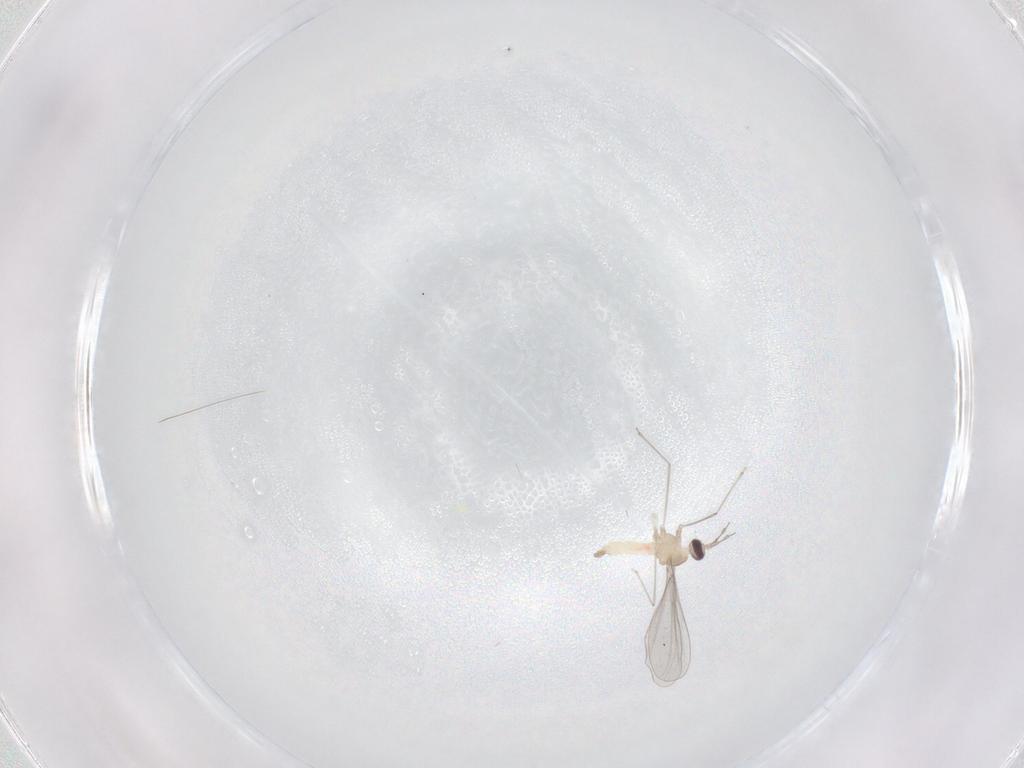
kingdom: Animalia
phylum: Arthropoda
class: Insecta
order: Diptera
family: Cecidomyiidae
